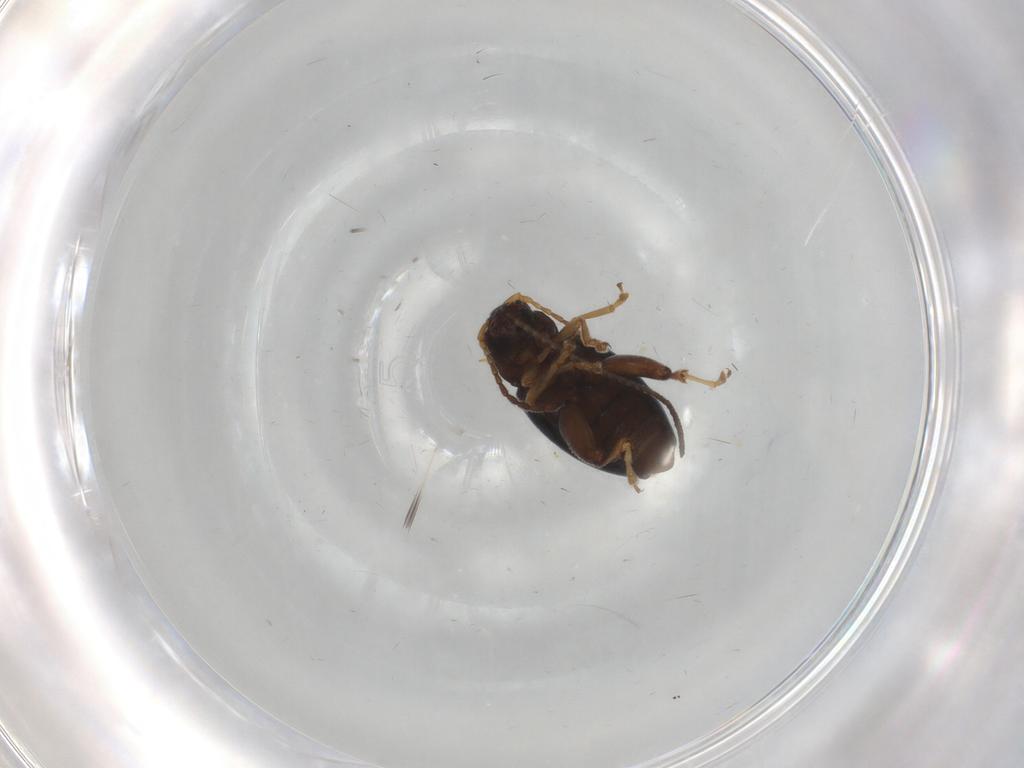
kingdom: Animalia
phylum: Arthropoda
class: Insecta
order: Coleoptera
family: Chrysomelidae
